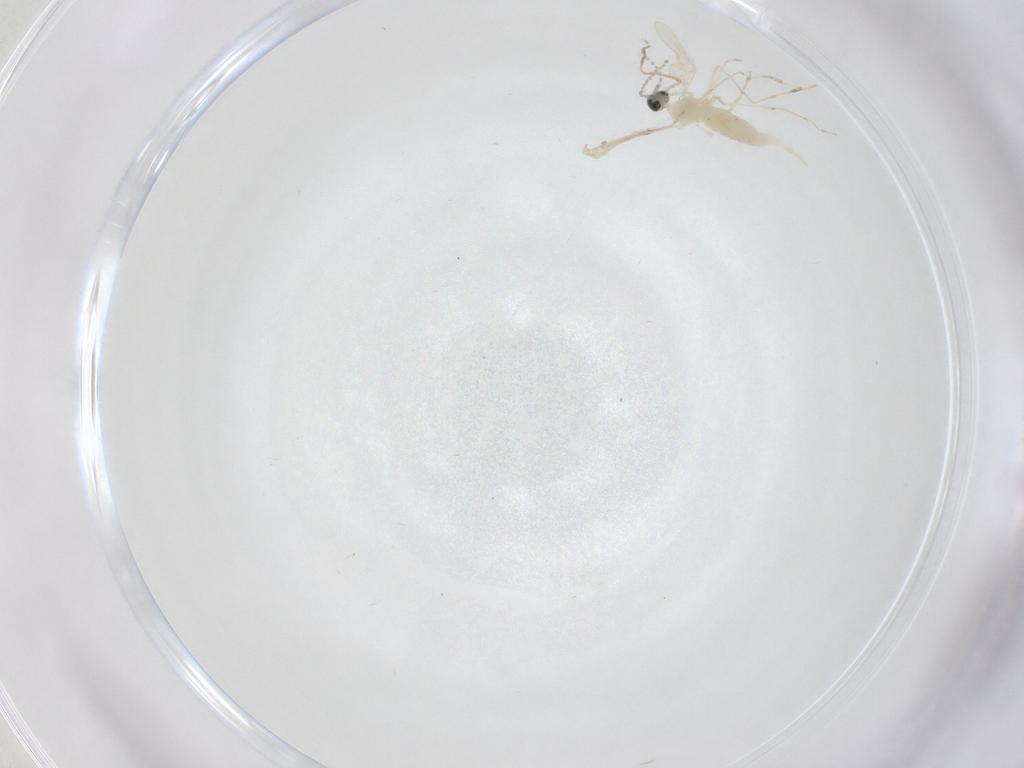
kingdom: Animalia
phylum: Arthropoda
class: Insecta
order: Diptera
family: Cecidomyiidae
